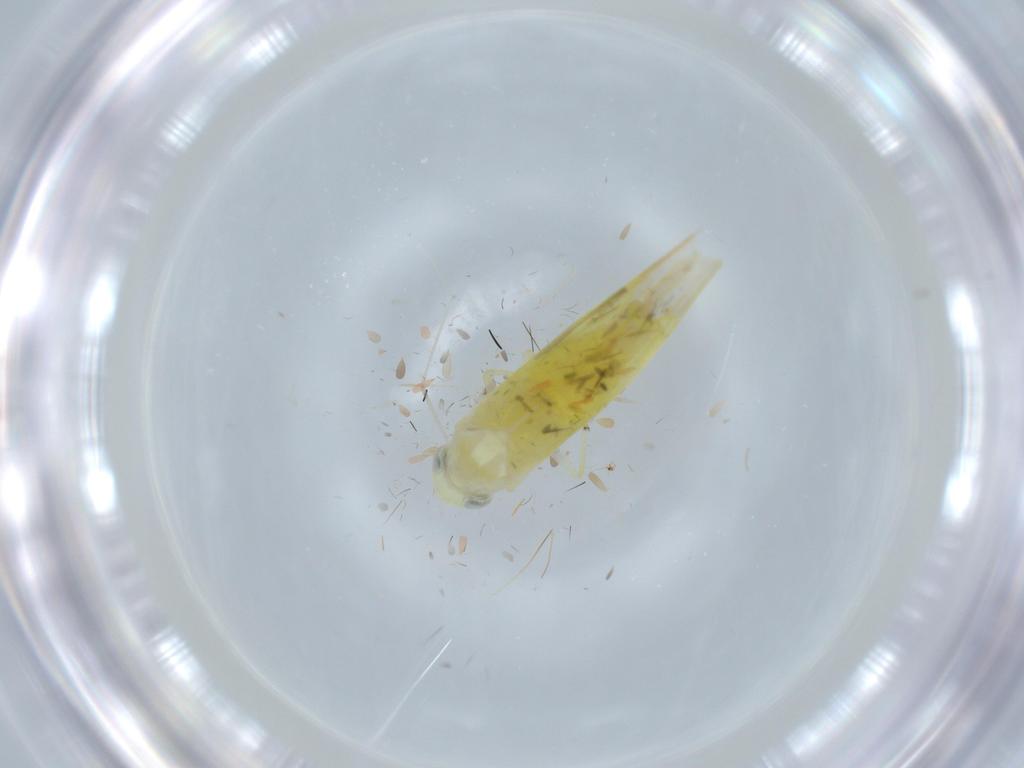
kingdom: Animalia
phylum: Arthropoda
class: Insecta
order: Hemiptera
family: Cicadellidae
